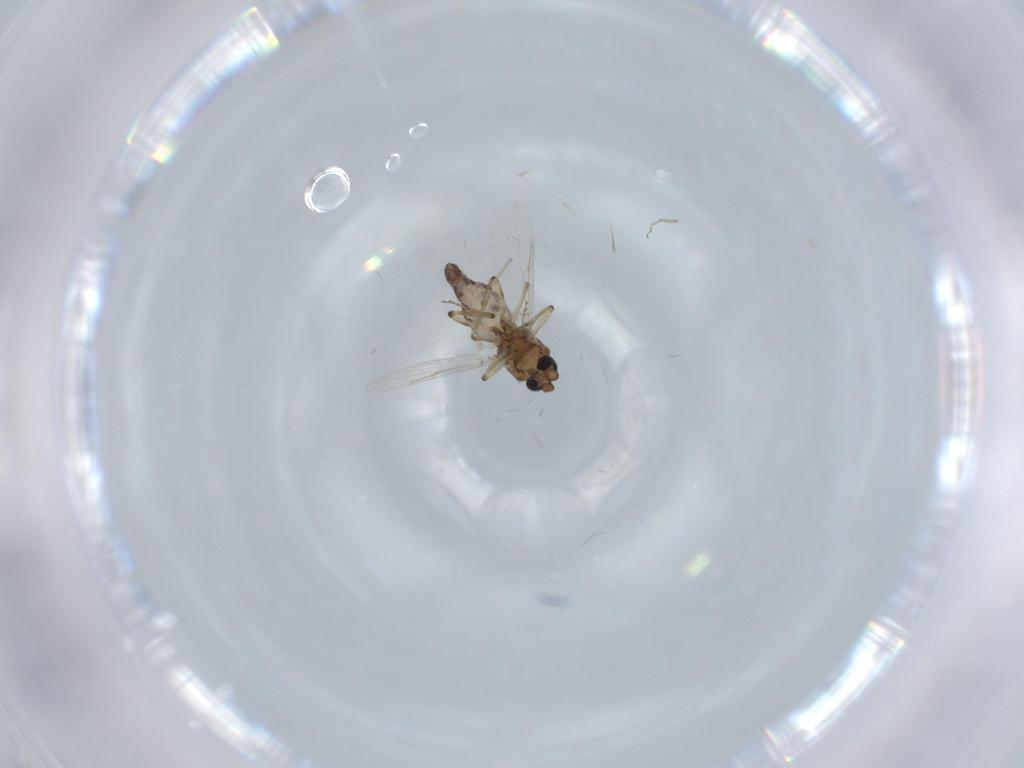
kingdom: Animalia
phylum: Arthropoda
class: Insecta
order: Diptera
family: Ceratopogonidae
